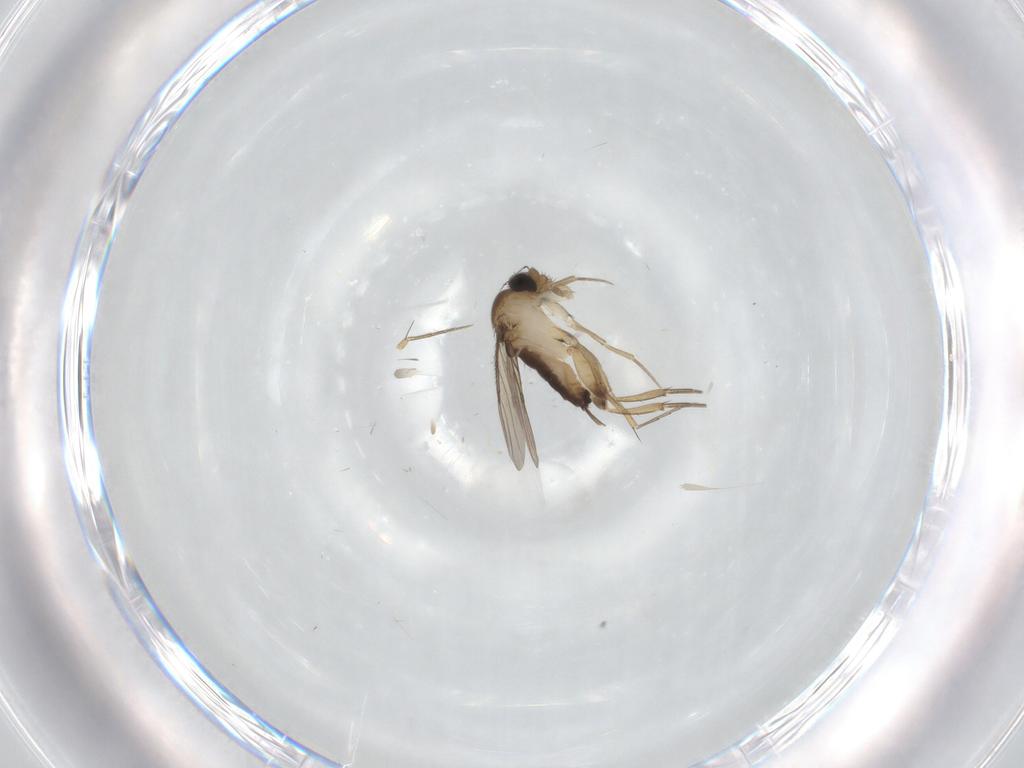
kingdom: Animalia
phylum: Arthropoda
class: Insecta
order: Diptera
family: Phoridae
